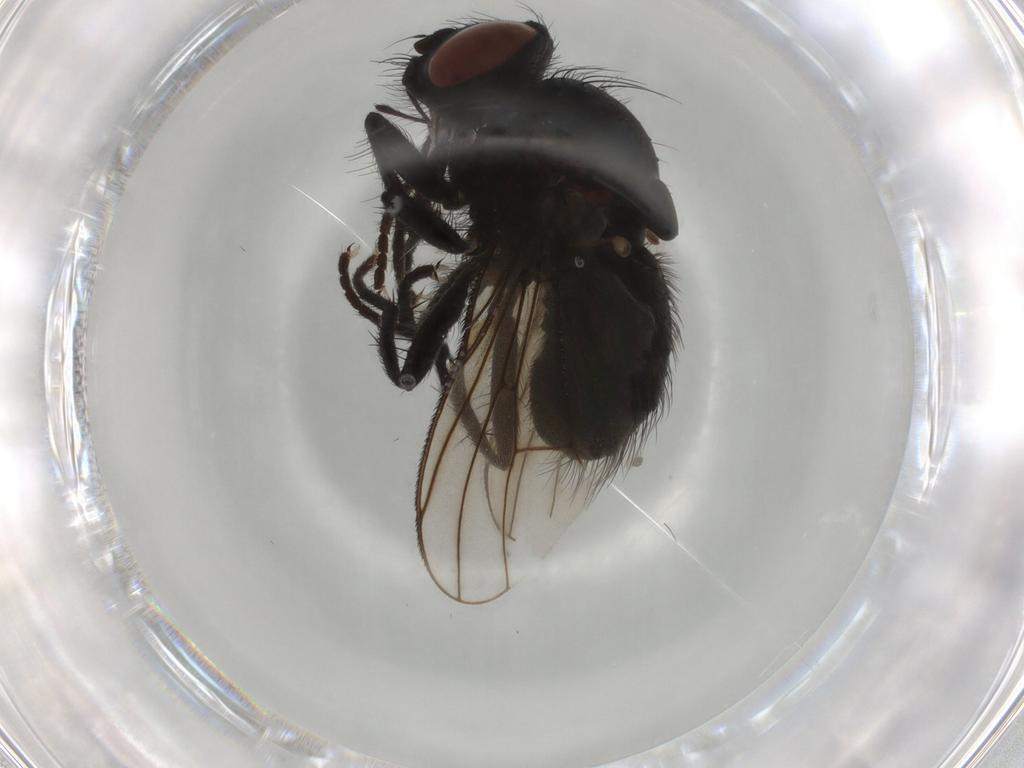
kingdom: Animalia
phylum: Arthropoda
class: Insecta
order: Diptera
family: Muscidae
